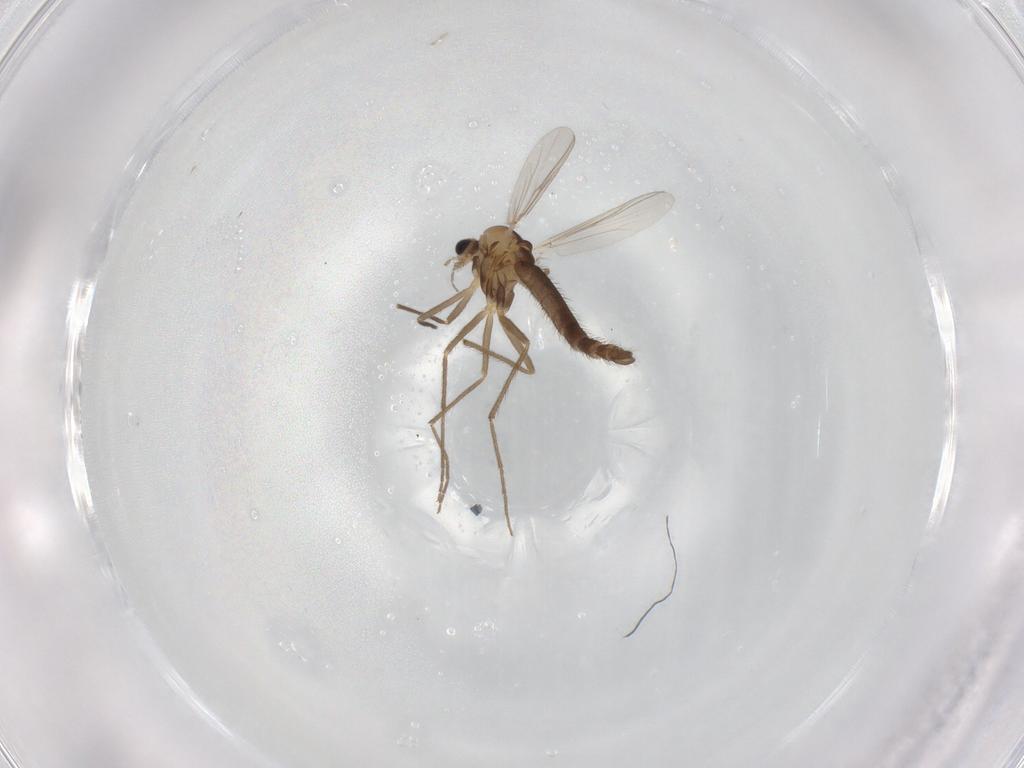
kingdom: Animalia
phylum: Arthropoda
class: Insecta
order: Diptera
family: Chironomidae
